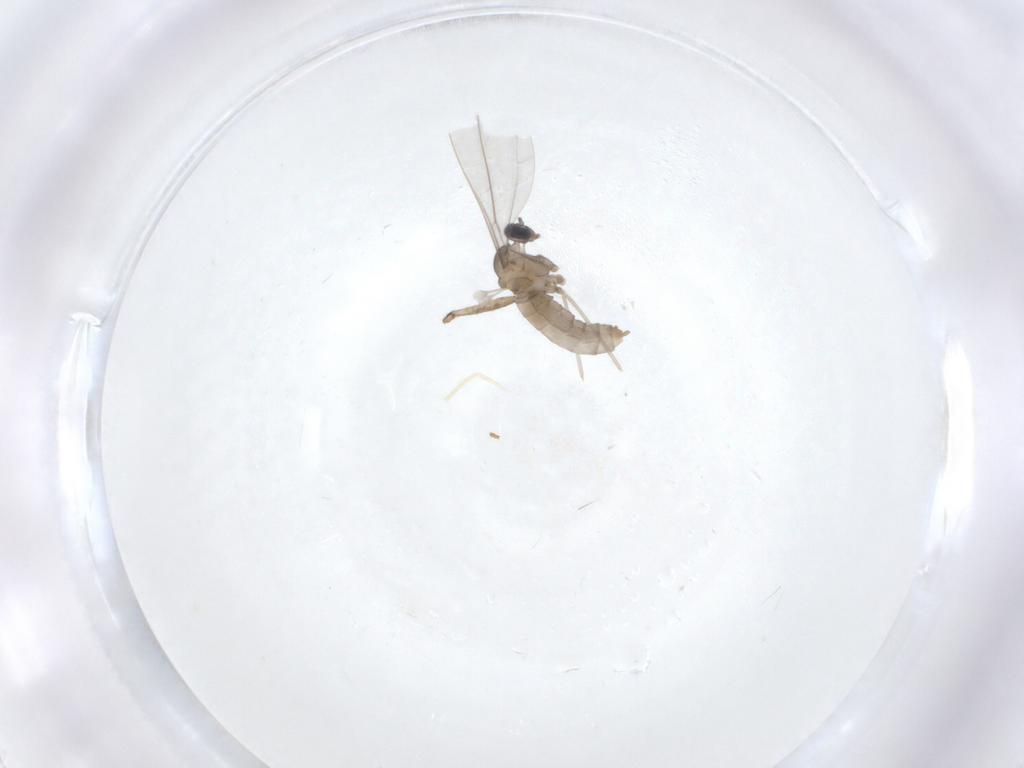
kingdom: Animalia
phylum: Arthropoda
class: Insecta
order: Diptera
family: Cecidomyiidae
